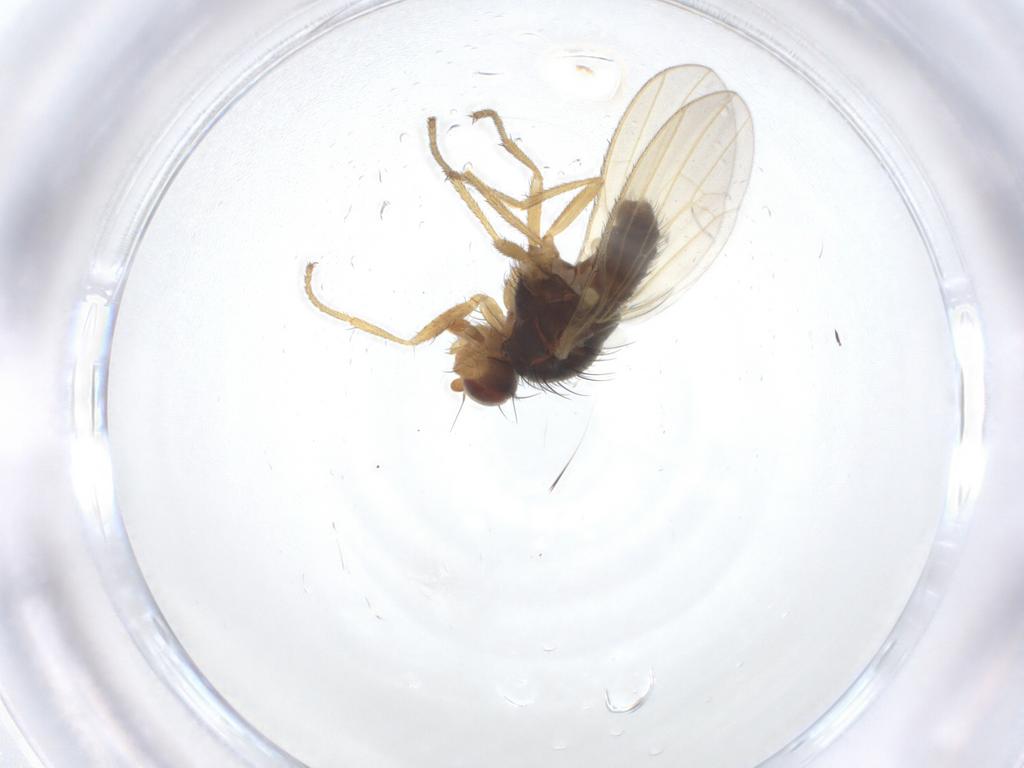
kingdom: Animalia
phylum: Arthropoda
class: Insecta
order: Diptera
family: Heleomyzidae
